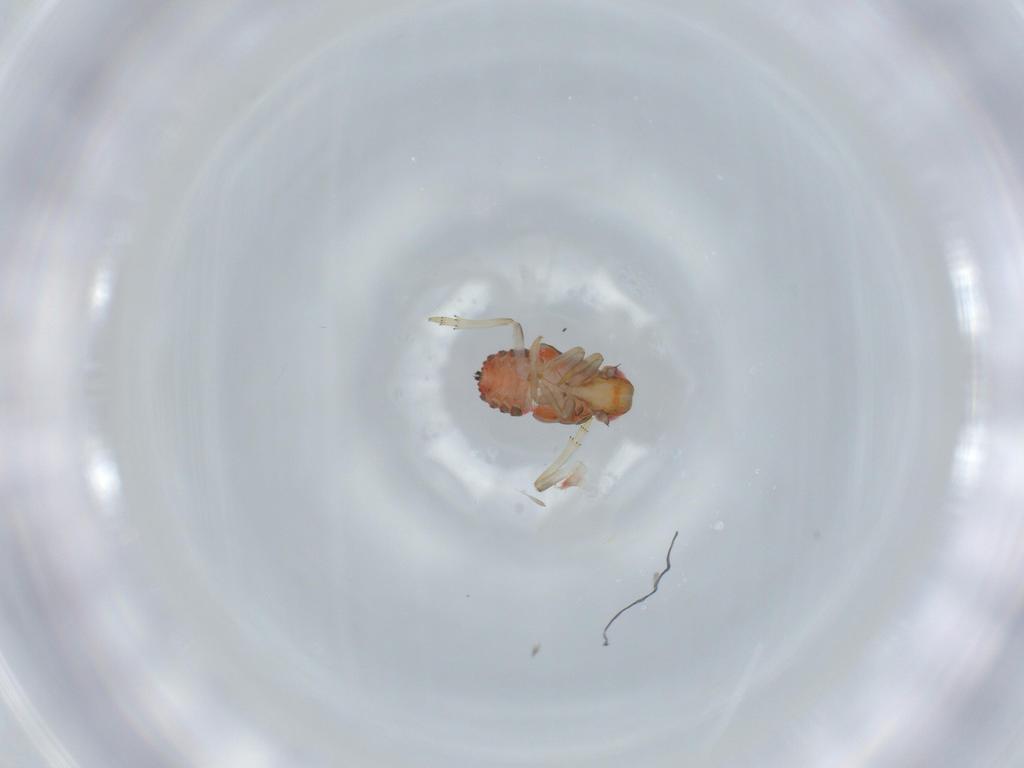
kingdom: Animalia
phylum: Arthropoda
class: Insecta
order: Hemiptera
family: Issidae
